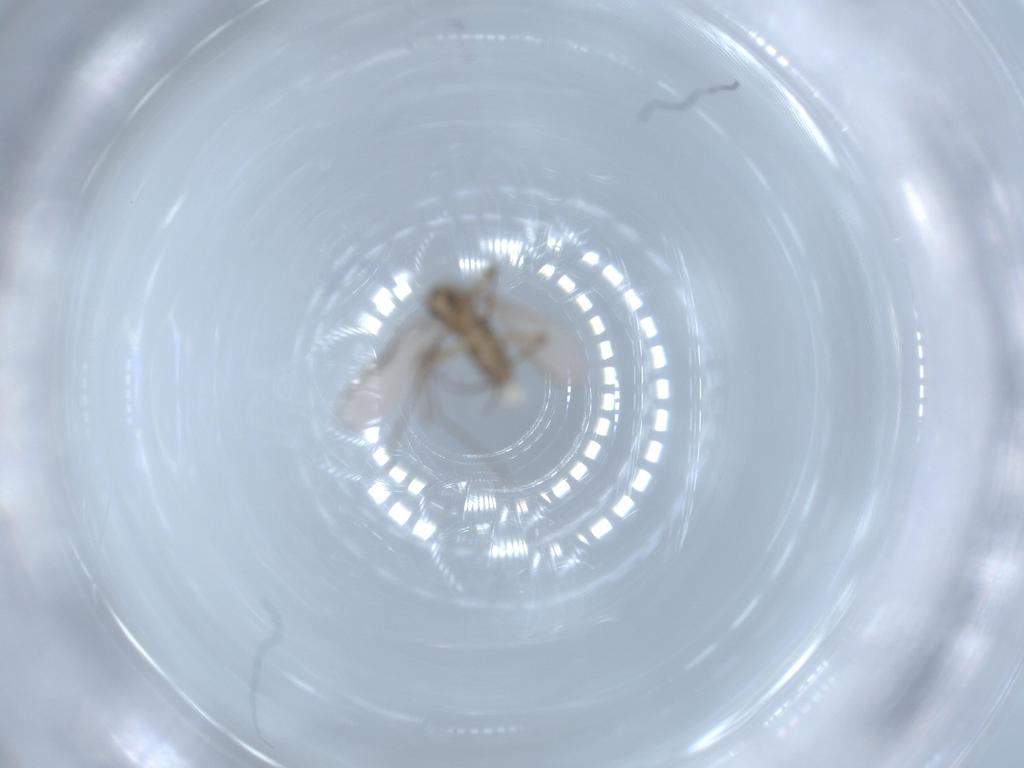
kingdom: Animalia
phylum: Arthropoda
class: Insecta
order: Diptera
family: Chironomidae
